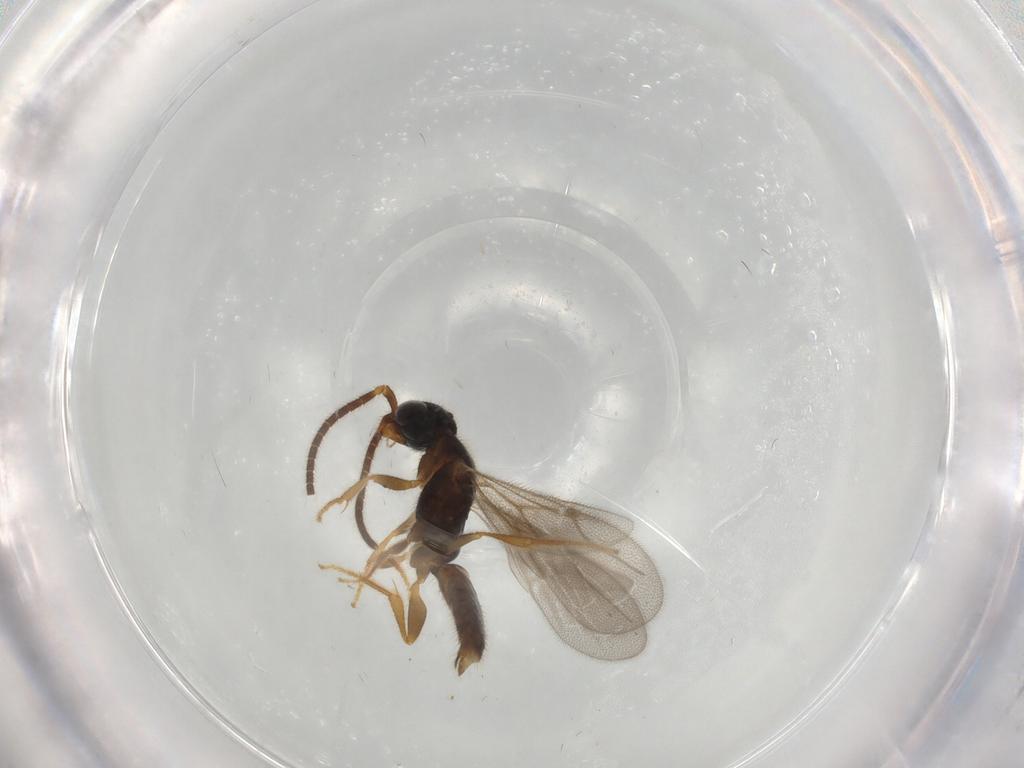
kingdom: Animalia
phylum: Arthropoda
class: Insecta
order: Hymenoptera
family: Bethylidae
